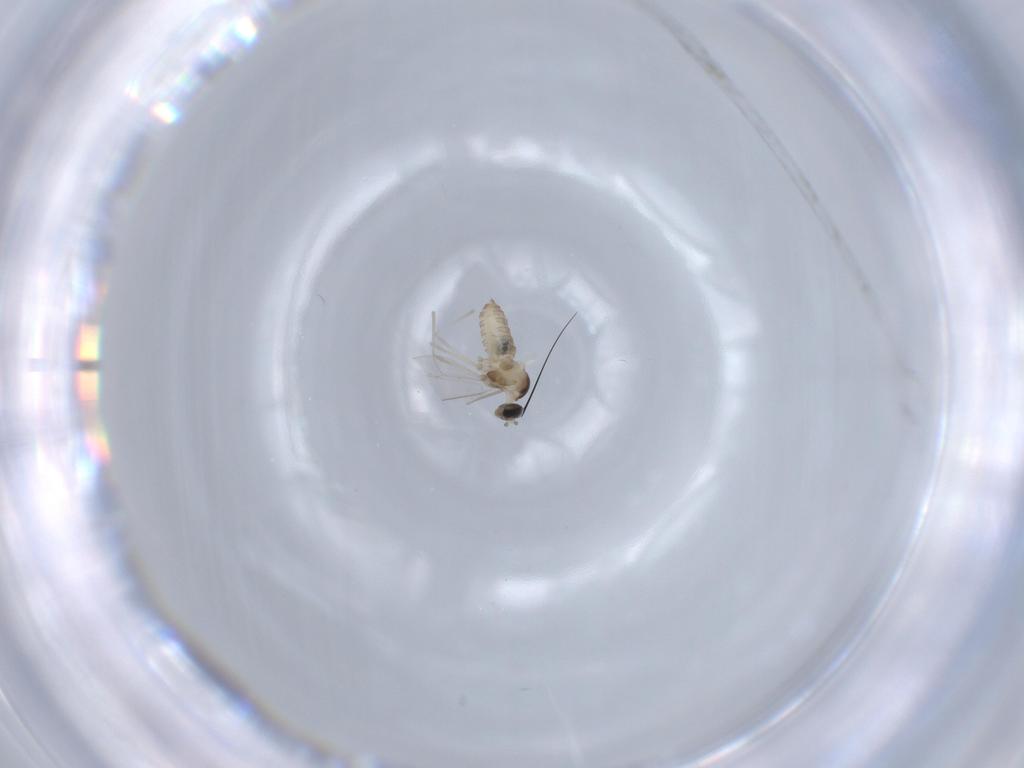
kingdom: Animalia
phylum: Arthropoda
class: Insecta
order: Diptera
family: Cecidomyiidae
